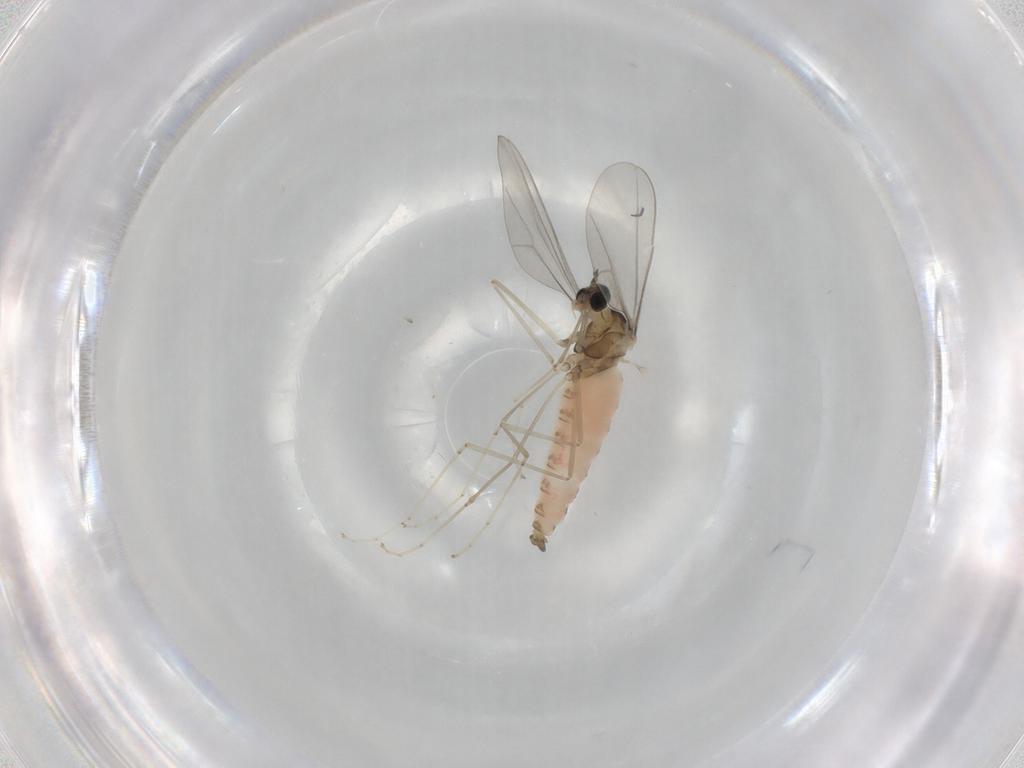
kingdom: Animalia
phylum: Arthropoda
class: Insecta
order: Diptera
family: Cecidomyiidae
